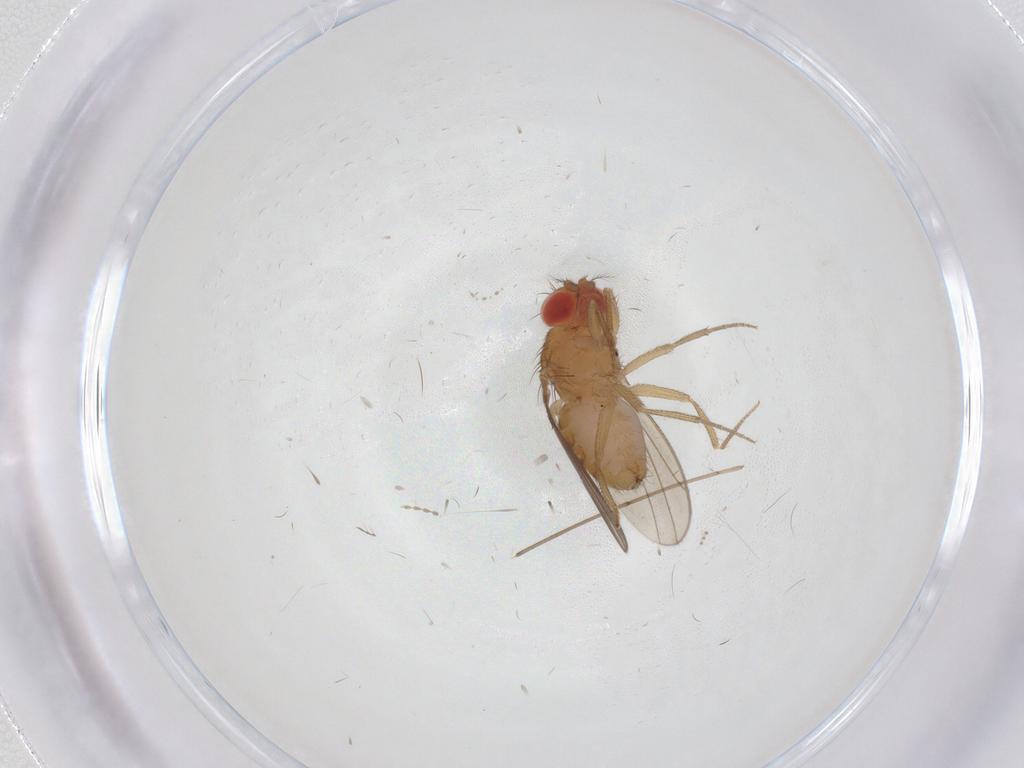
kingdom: Animalia
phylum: Arthropoda
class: Insecta
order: Diptera
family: Drosophilidae
